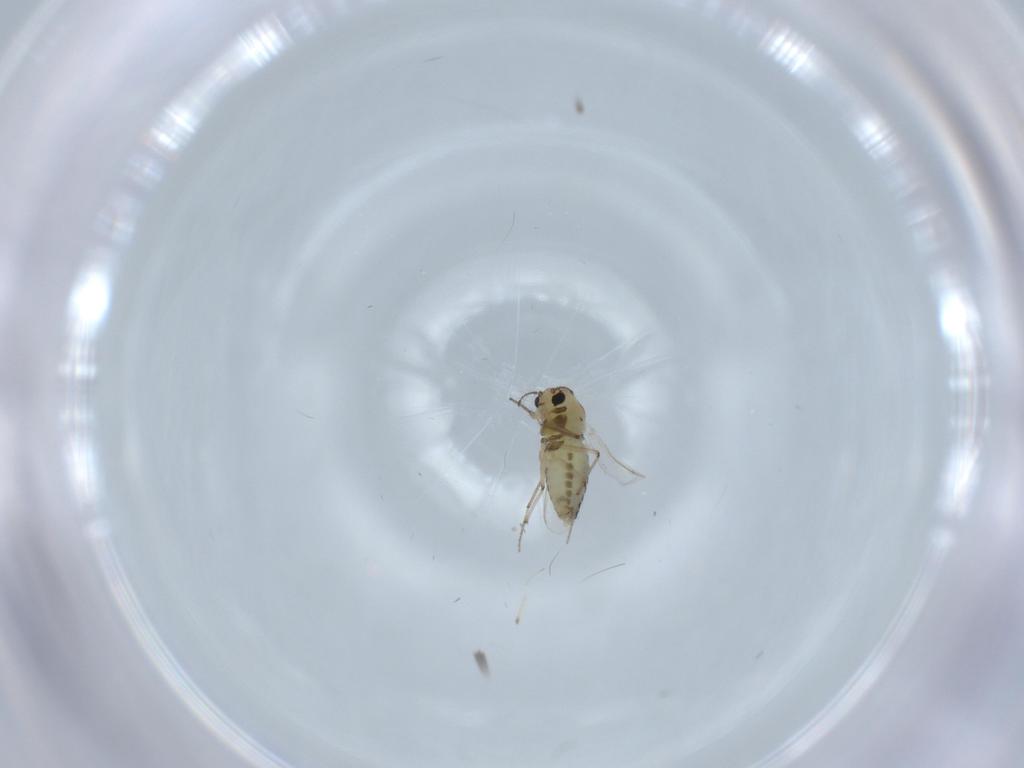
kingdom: Animalia
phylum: Arthropoda
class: Insecta
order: Diptera
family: Chironomidae
